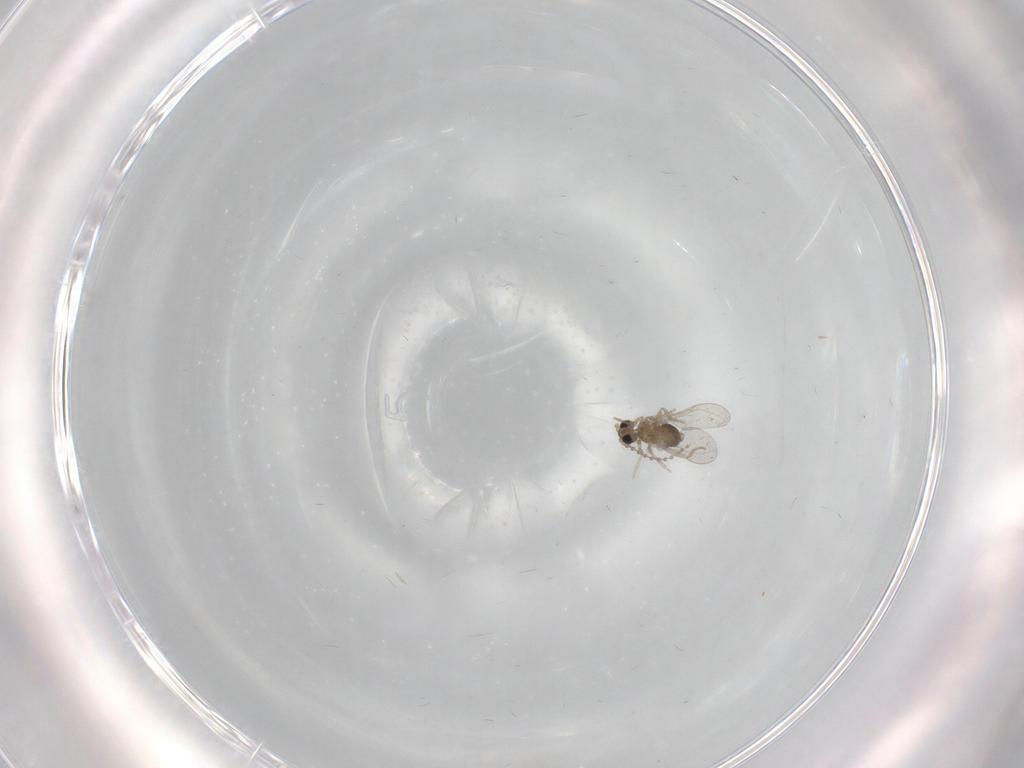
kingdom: Animalia
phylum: Arthropoda
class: Insecta
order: Diptera
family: Cecidomyiidae
